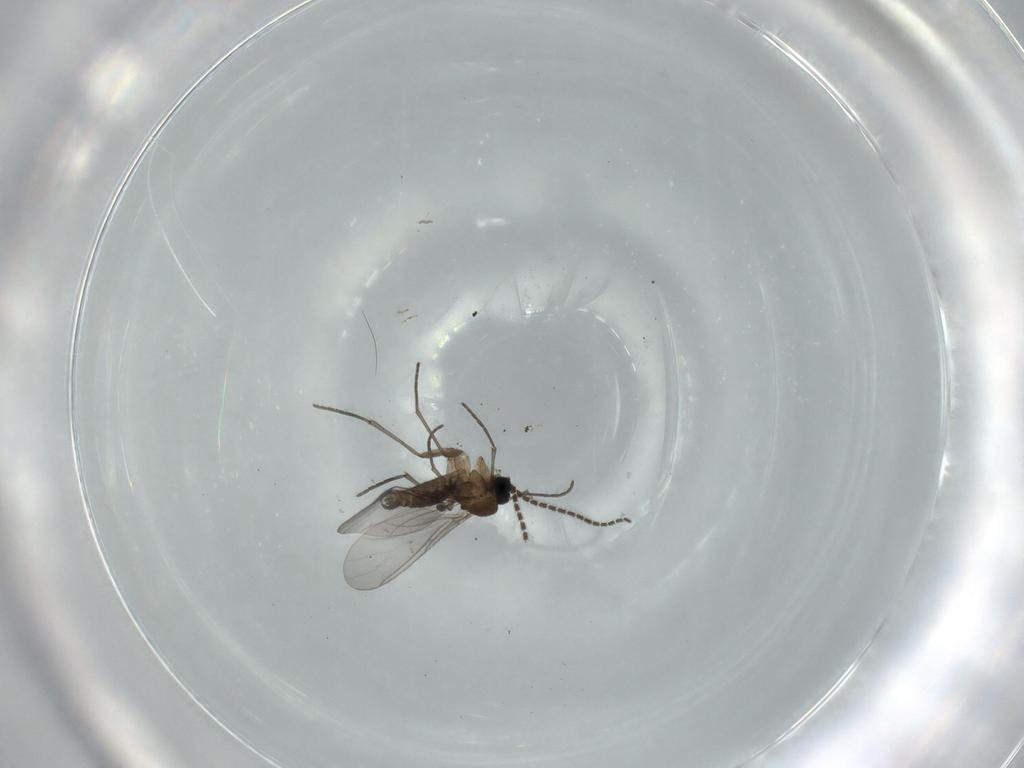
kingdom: Animalia
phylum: Arthropoda
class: Insecta
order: Diptera
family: Sciaridae
